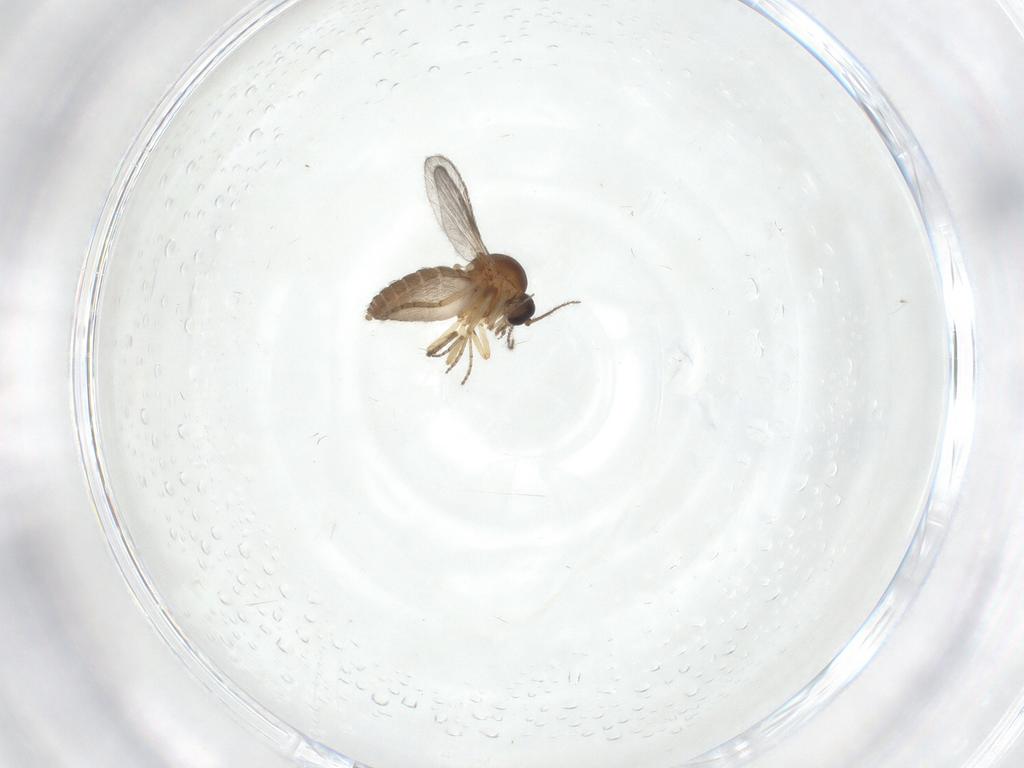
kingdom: Animalia
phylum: Arthropoda
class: Insecta
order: Diptera
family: Ceratopogonidae
